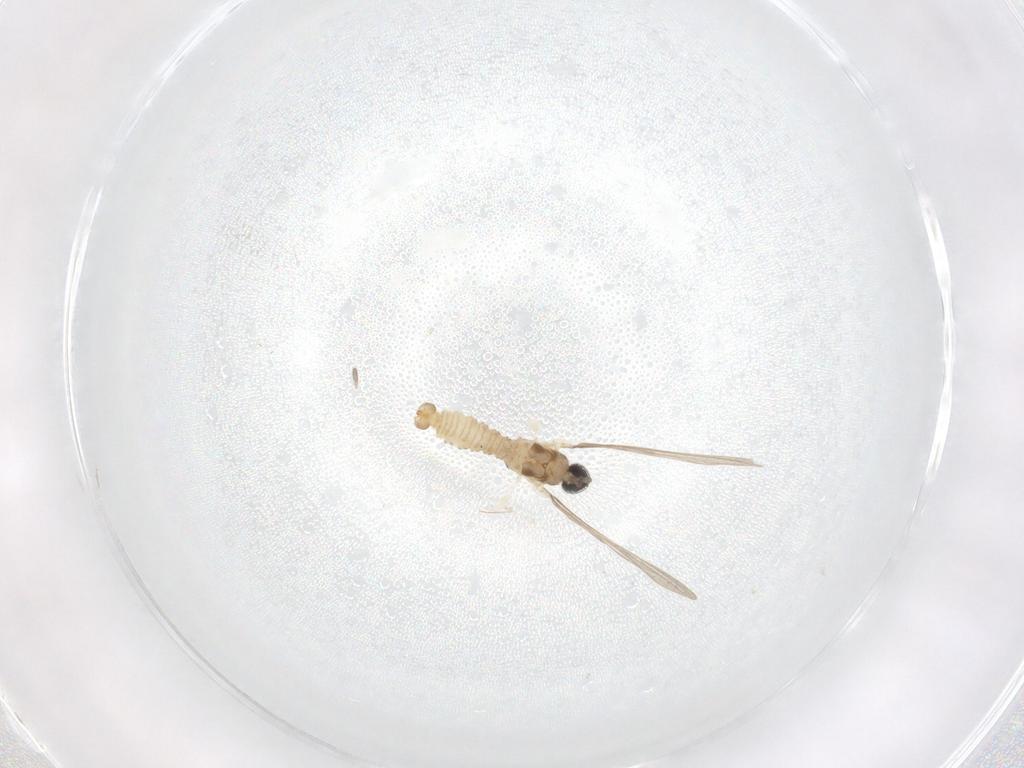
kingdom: Animalia
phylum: Arthropoda
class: Insecta
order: Diptera
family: Cecidomyiidae
